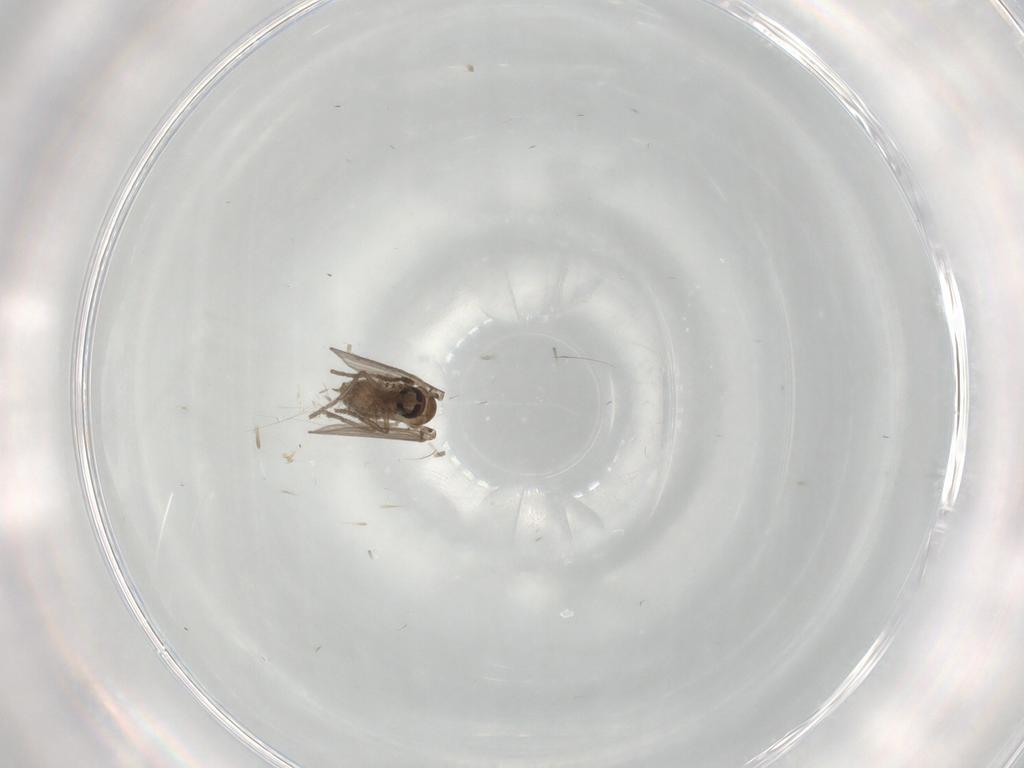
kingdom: Animalia
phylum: Arthropoda
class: Insecta
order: Diptera
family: Psychodidae
